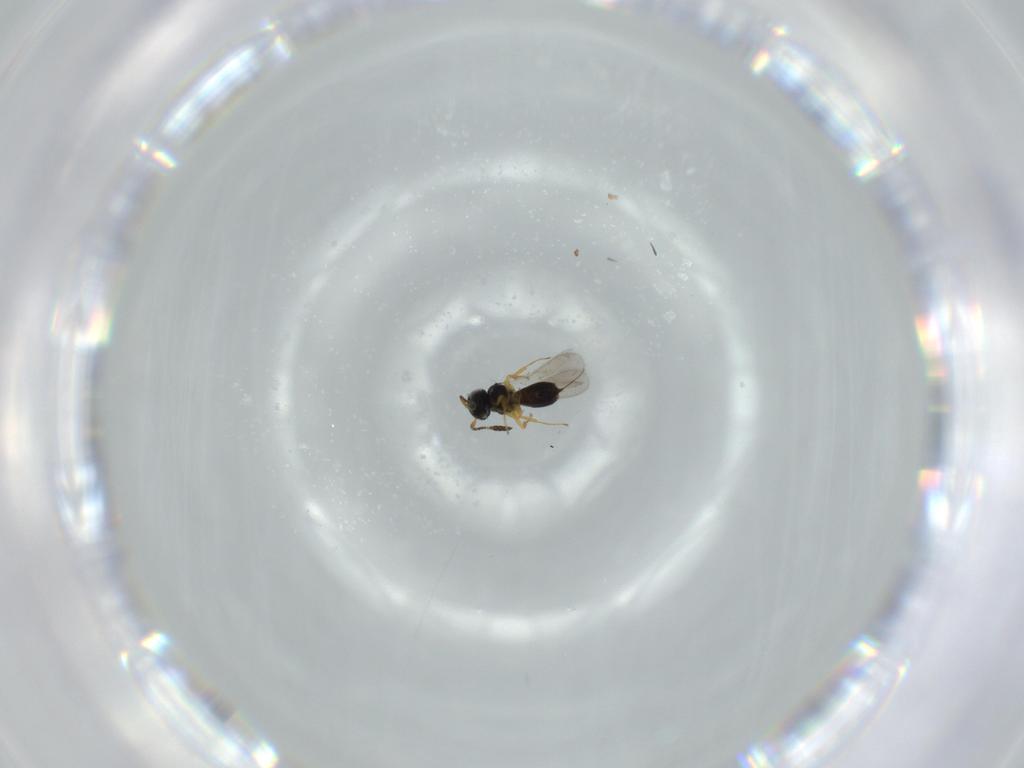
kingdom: Animalia
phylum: Arthropoda
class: Insecta
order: Hymenoptera
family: Scelionidae
